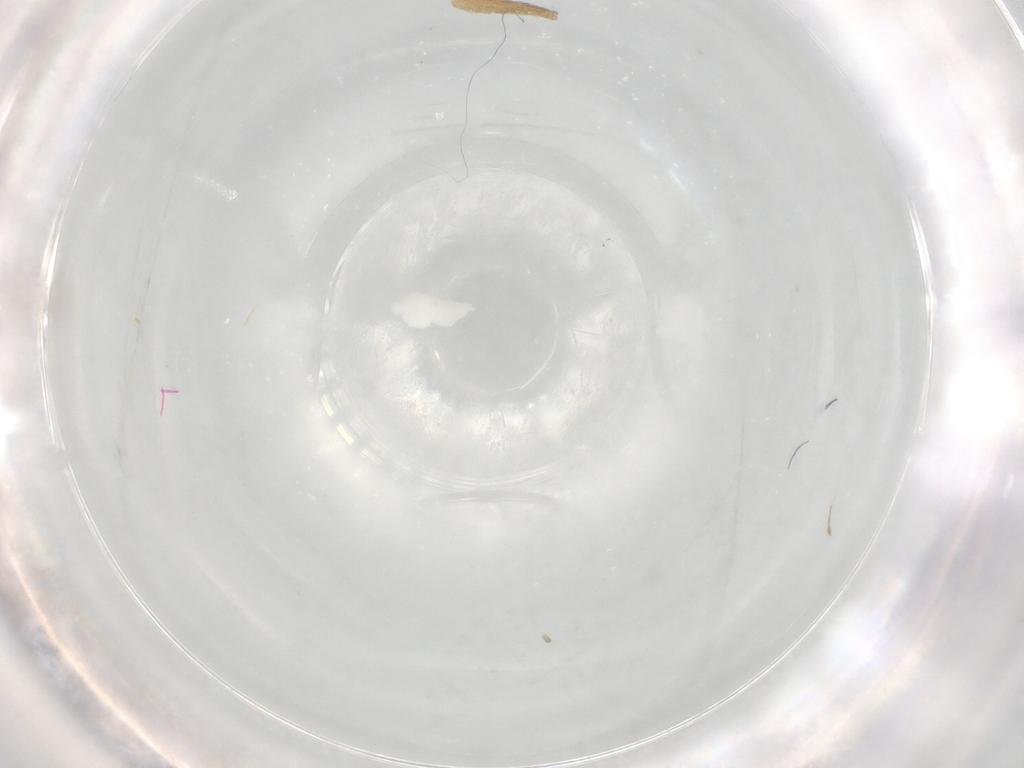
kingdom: Animalia
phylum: Arthropoda
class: Insecta
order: Diptera
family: Cecidomyiidae
